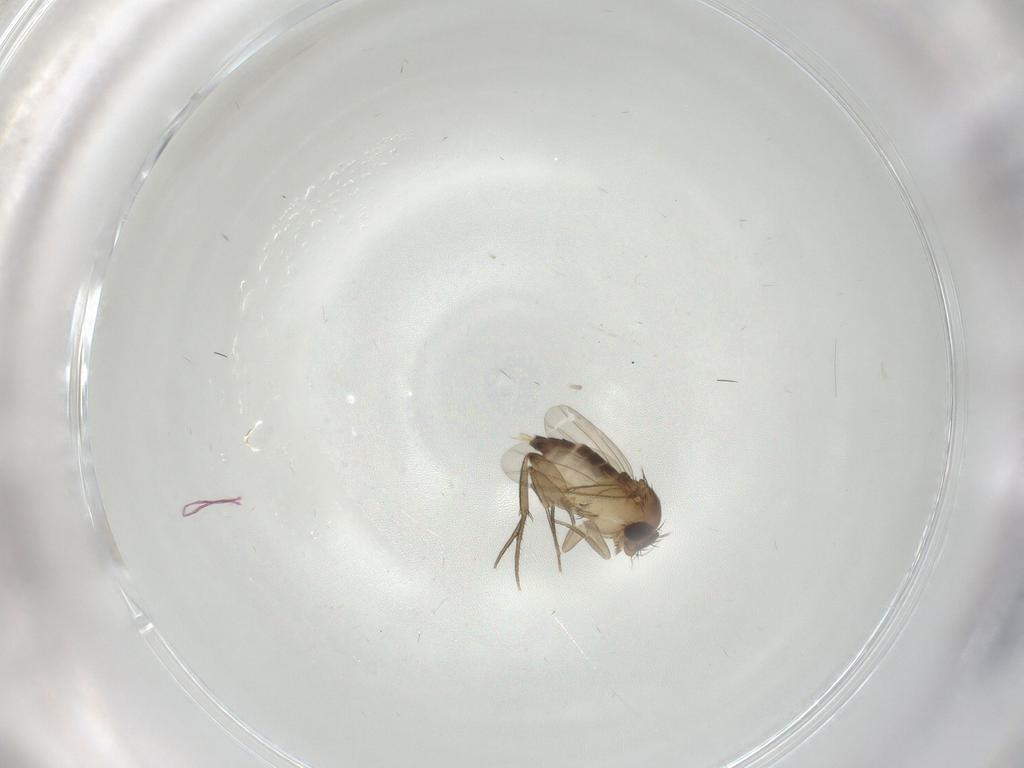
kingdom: Animalia
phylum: Arthropoda
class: Insecta
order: Diptera
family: Phoridae
